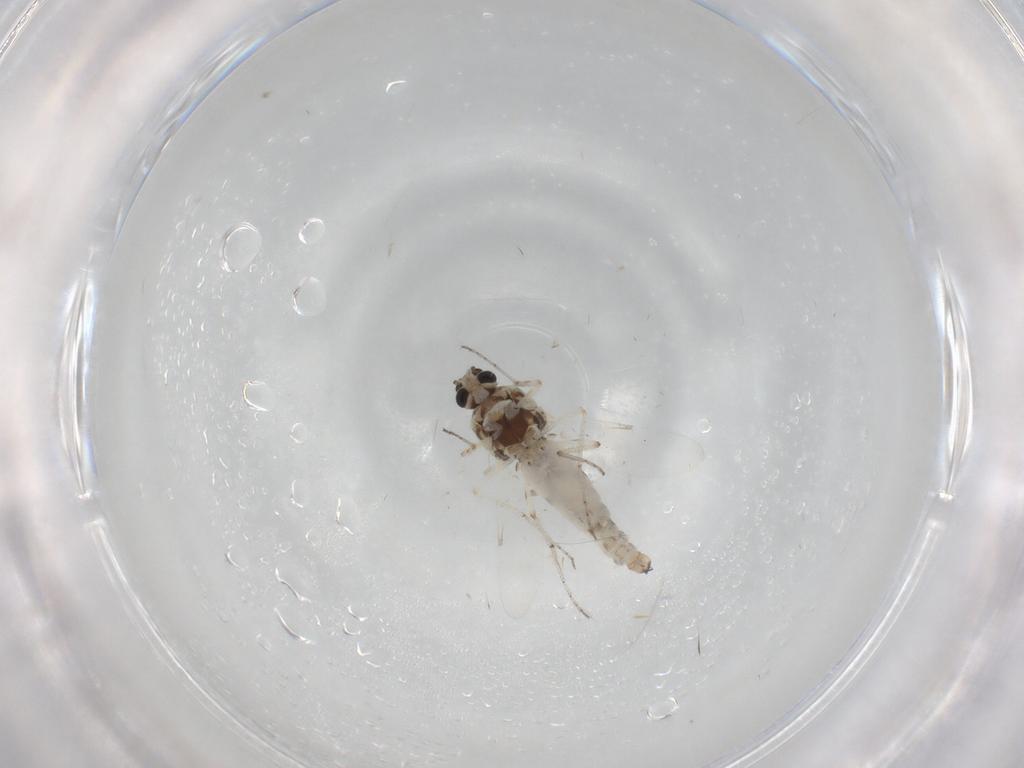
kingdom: Animalia
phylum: Arthropoda
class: Insecta
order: Diptera
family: Ceratopogonidae
